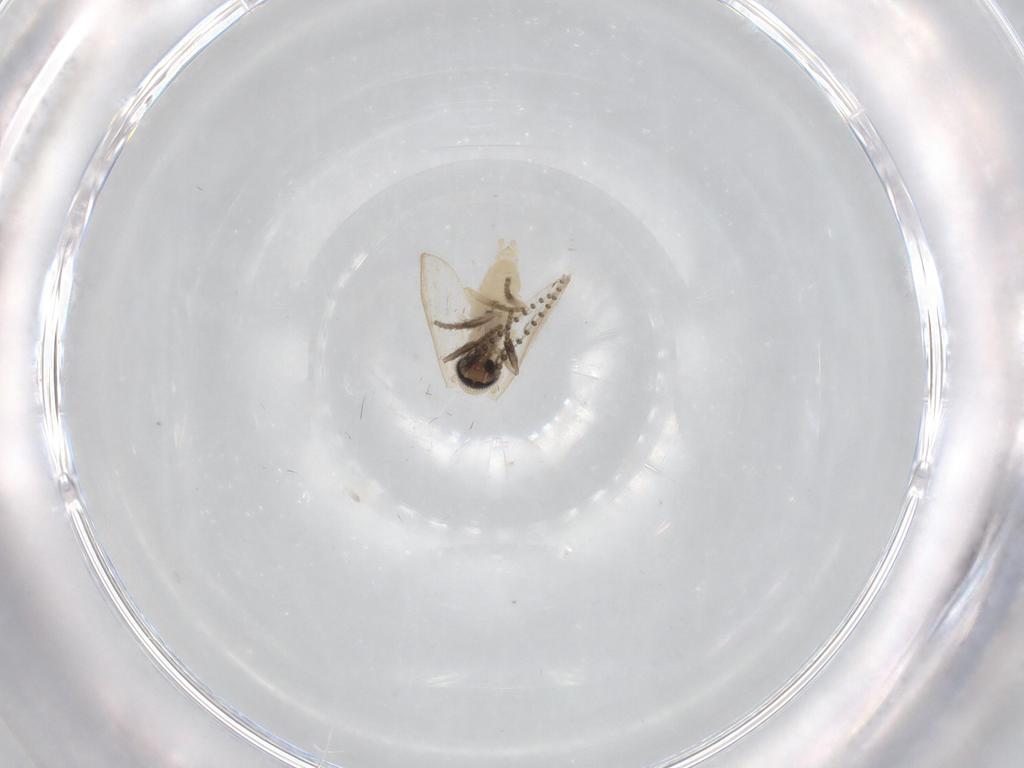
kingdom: Animalia
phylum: Arthropoda
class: Insecta
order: Diptera
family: Psychodidae
